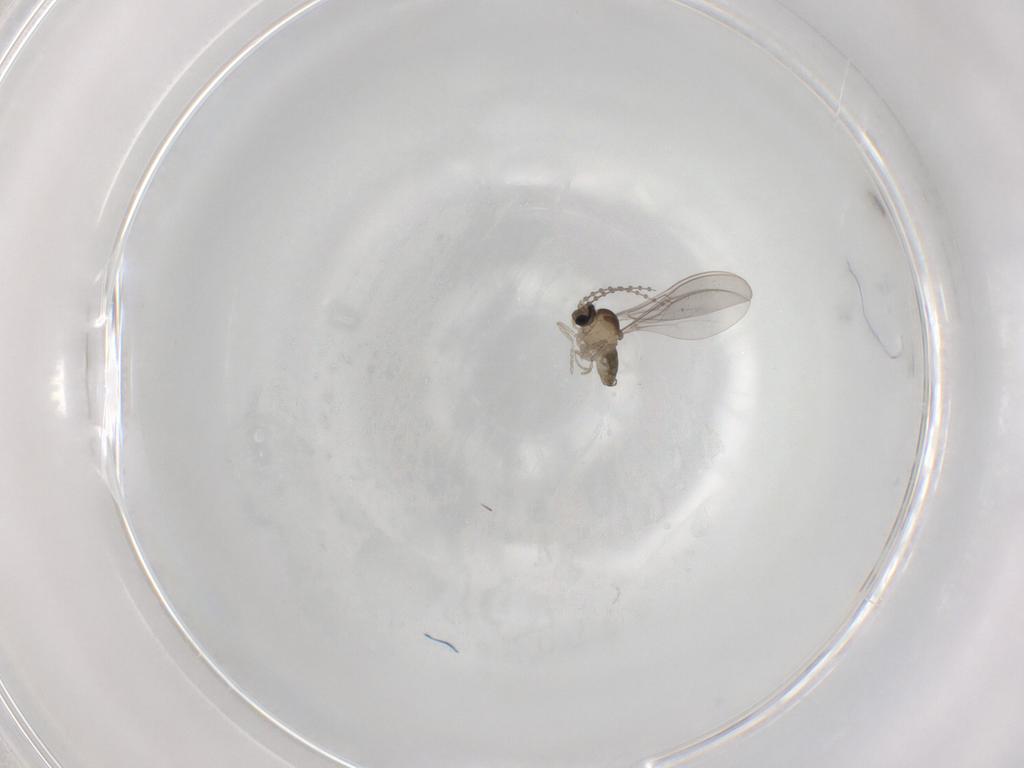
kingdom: Animalia
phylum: Arthropoda
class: Insecta
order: Diptera
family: Cecidomyiidae
